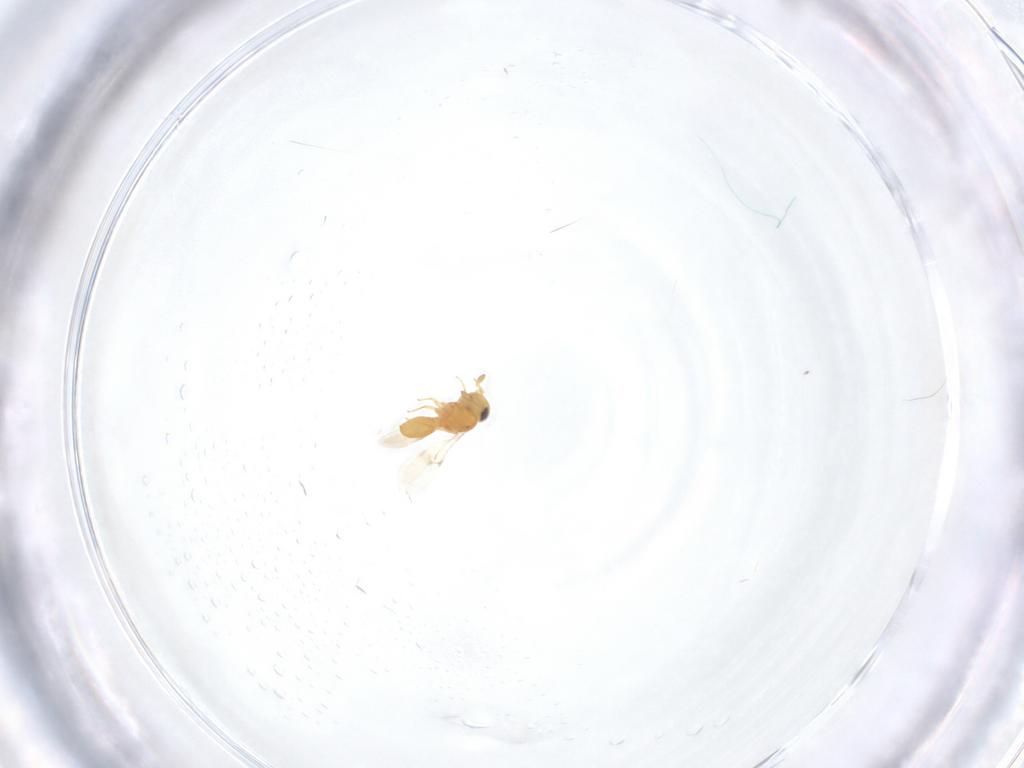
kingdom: Animalia
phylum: Arthropoda
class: Insecta
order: Hymenoptera
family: Scelionidae
